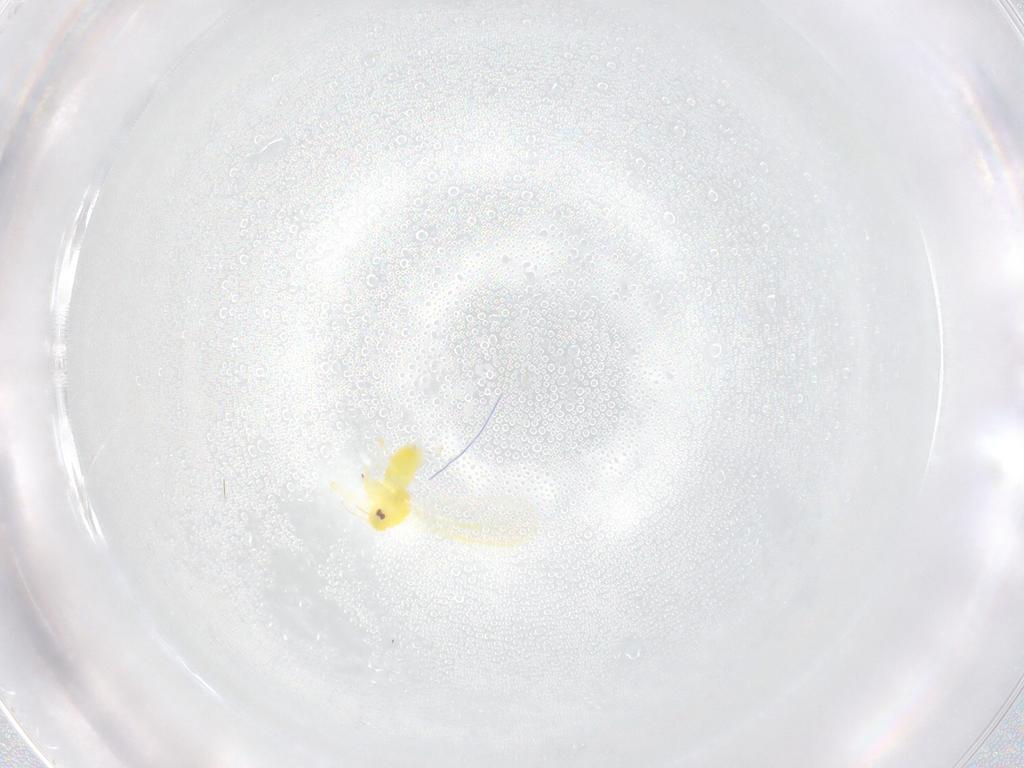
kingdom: Animalia
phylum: Arthropoda
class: Insecta
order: Hemiptera
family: Aleyrodidae
